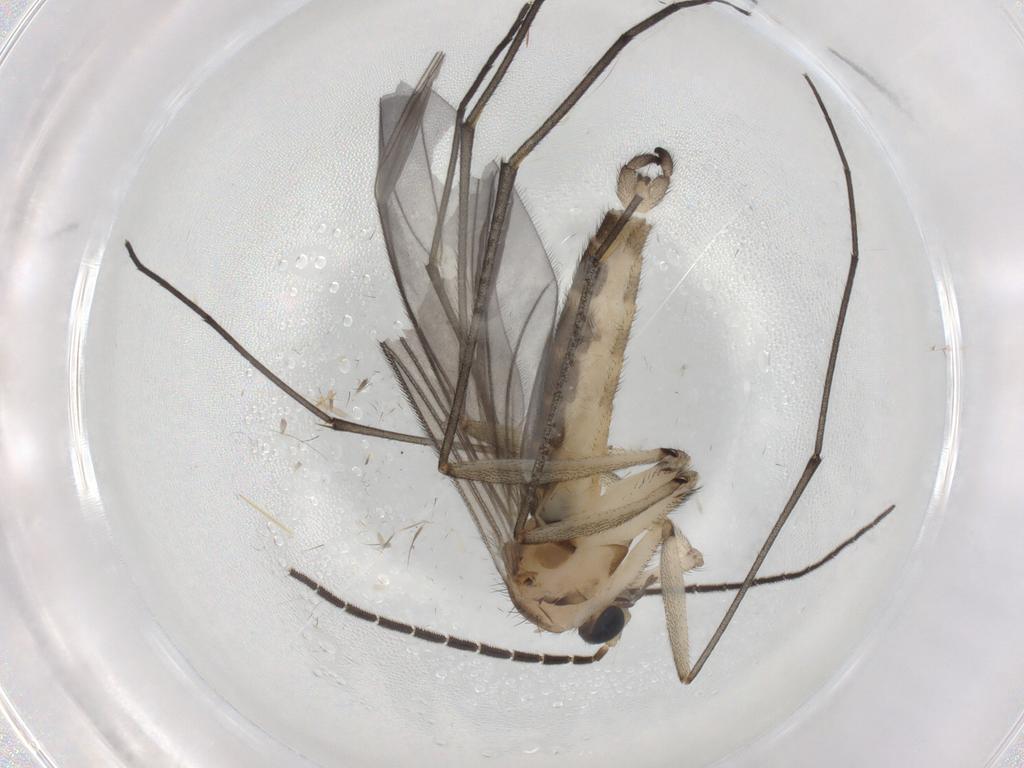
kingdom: Animalia
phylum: Arthropoda
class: Insecta
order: Diptera
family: Sciaridae
